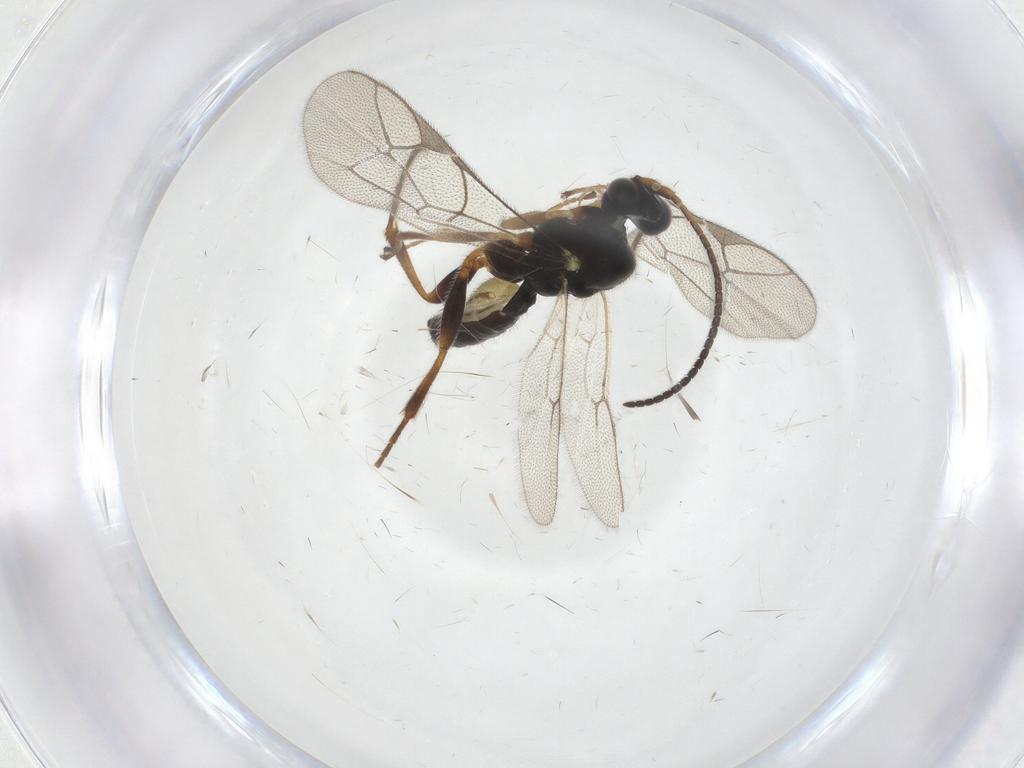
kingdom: Animalia
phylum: Arthropoda
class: Insecta
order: Hymenoptera
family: Ichneumonidae
